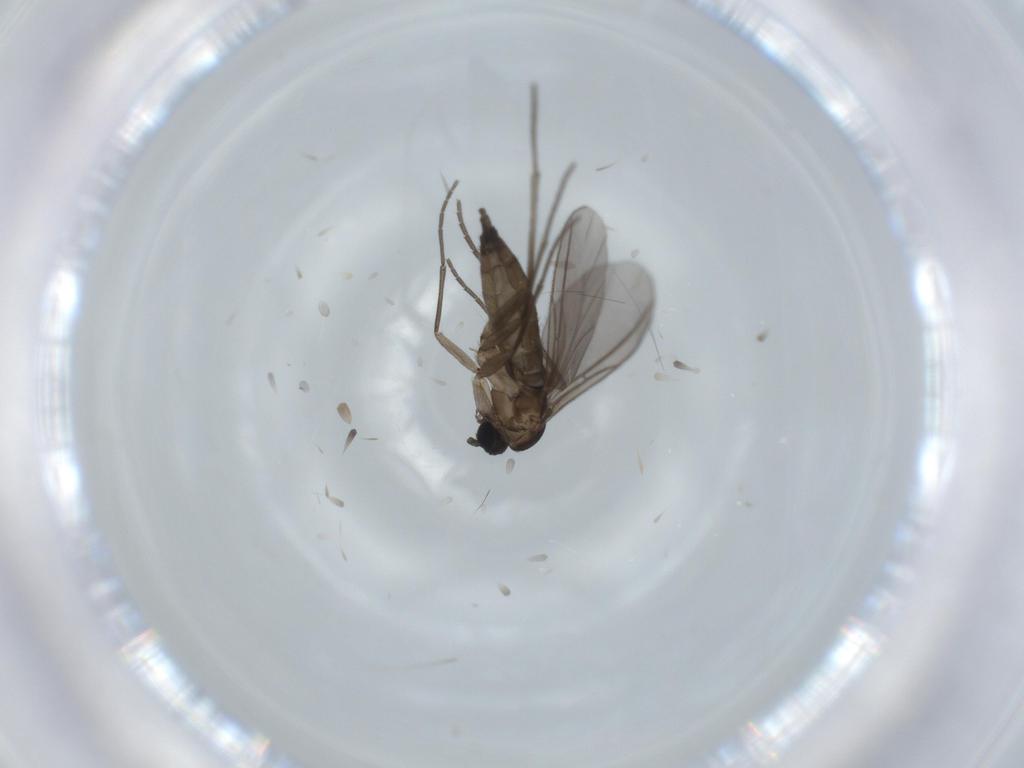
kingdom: Animalia
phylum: Arthropoda
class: Insecta
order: Diptera
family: Sciaridae
